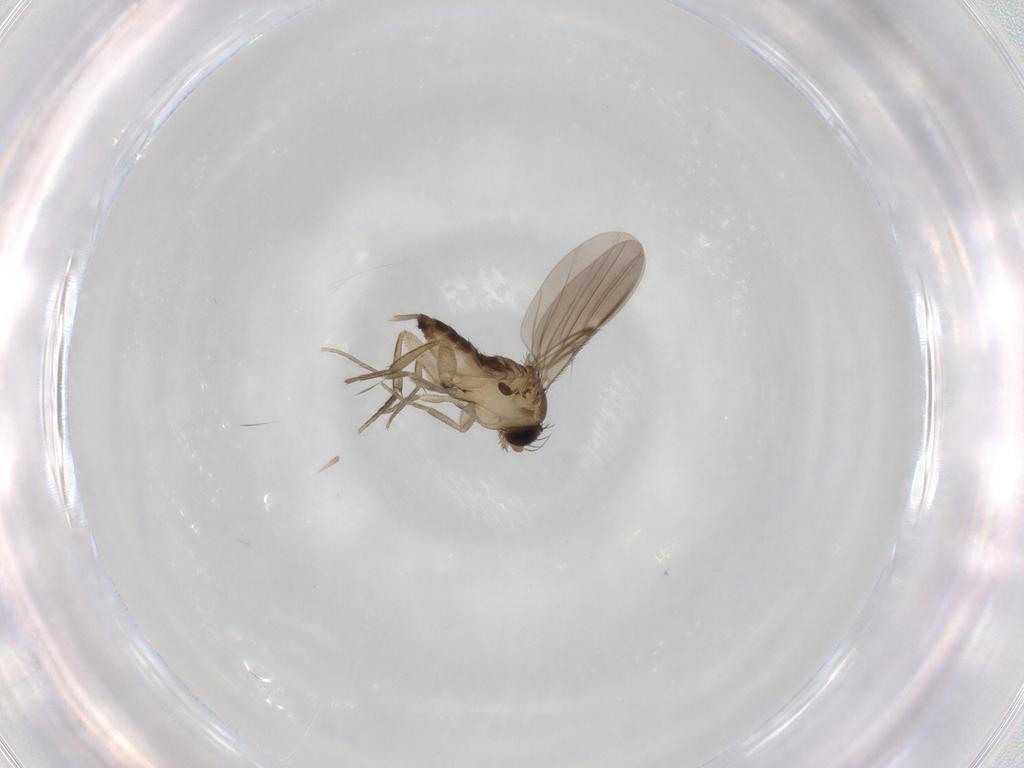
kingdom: Animalia
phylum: Arthropoda
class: Insecta
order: Diptera
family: Phoridae
